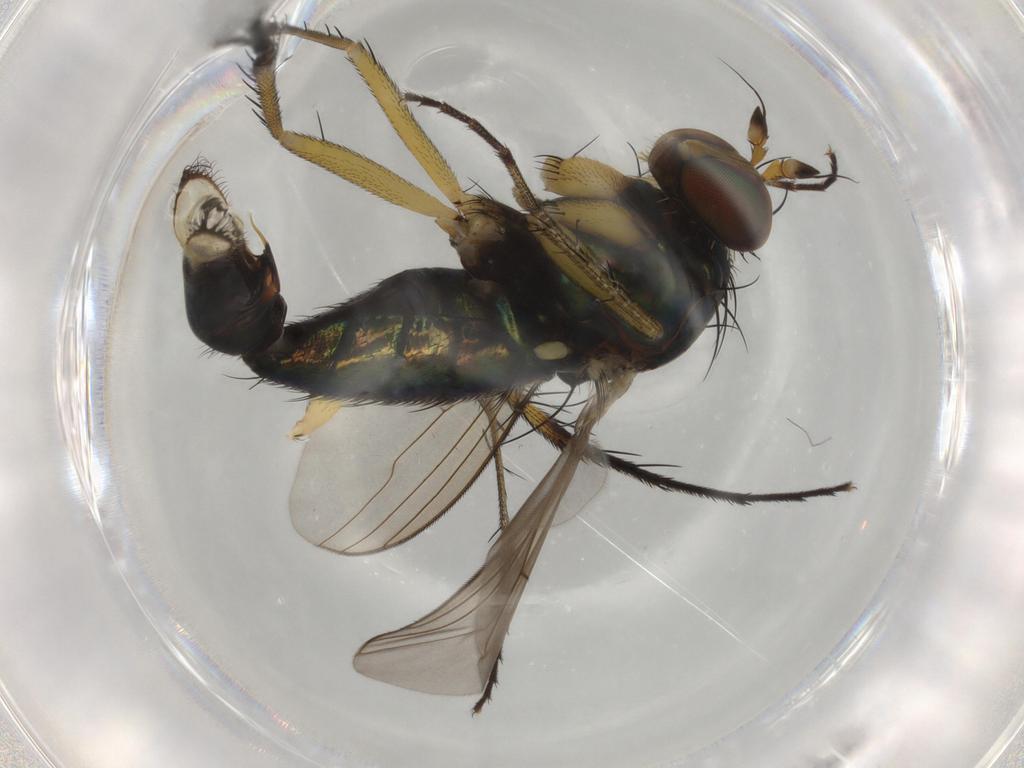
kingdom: Animalia
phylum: Arthropoda
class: Insecta
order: Diptera
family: Dolichopodidae
